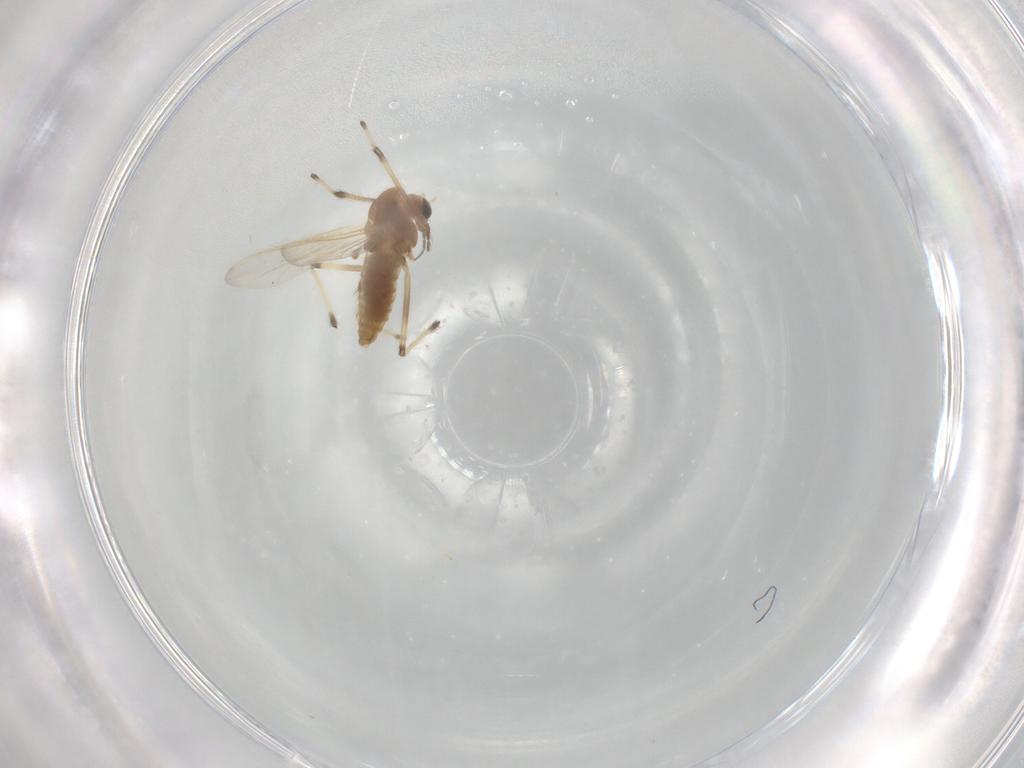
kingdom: Animalia
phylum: Arthropoda
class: Insecta
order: Diptera
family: Chironomidae
